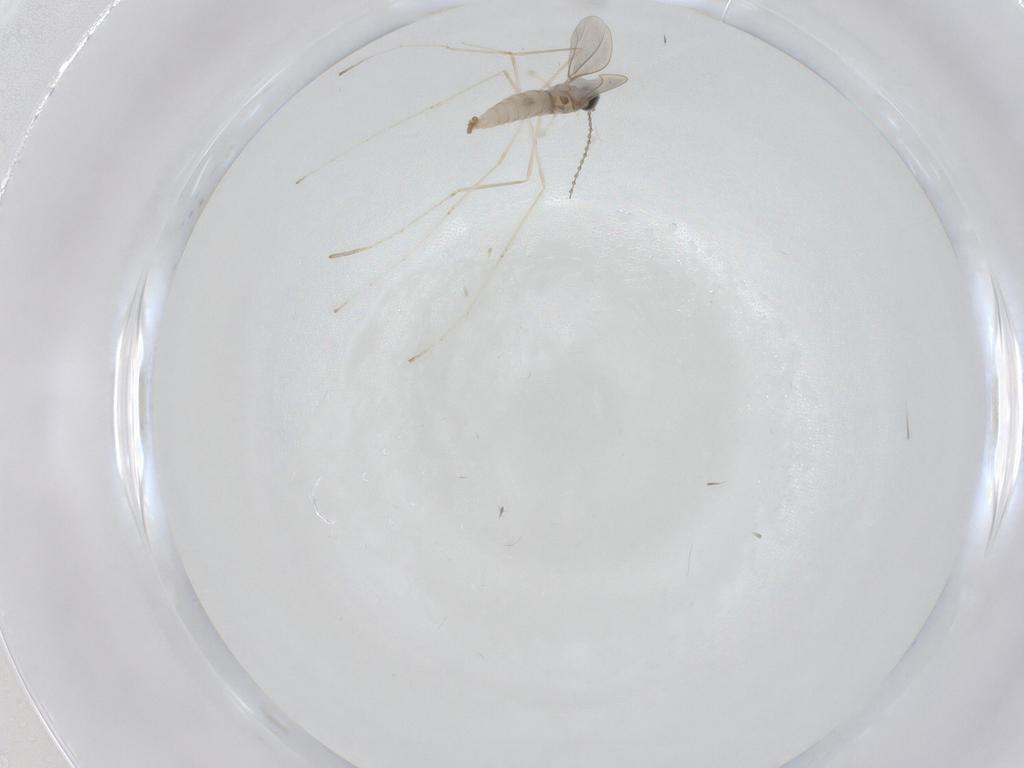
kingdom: Animalia
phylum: Arthropoda
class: Insecta
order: Diptera
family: Cecidomyiidae
